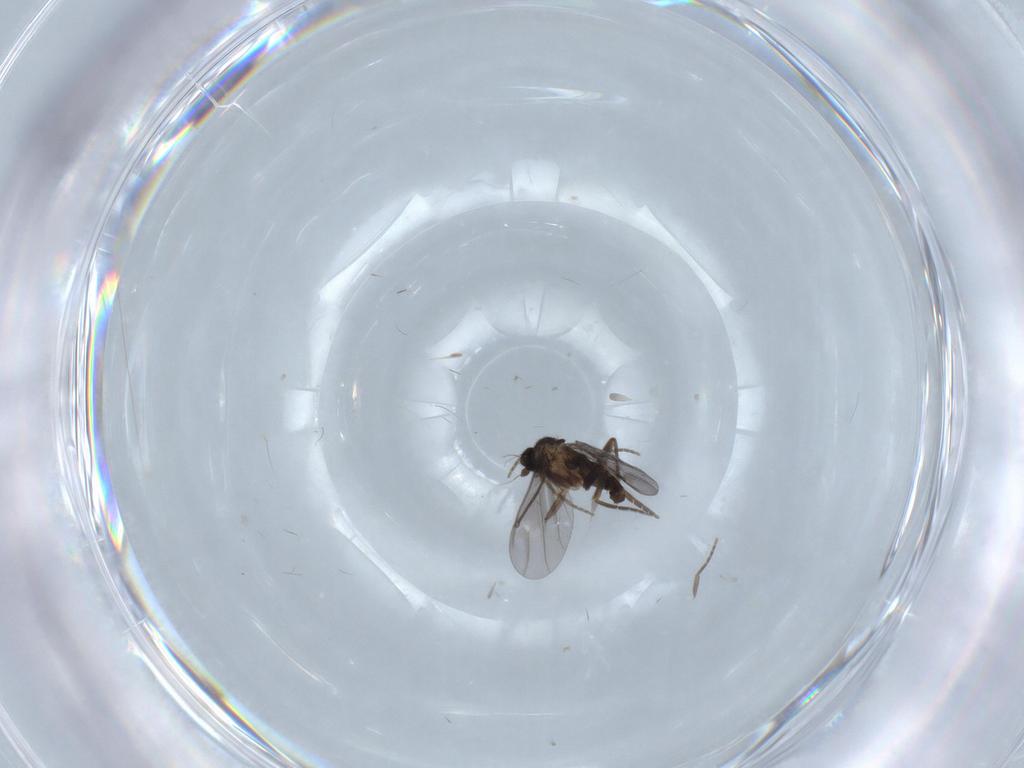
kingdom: Animalia
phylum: Arthropoda
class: Insecta
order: Diptera
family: Phoridae
